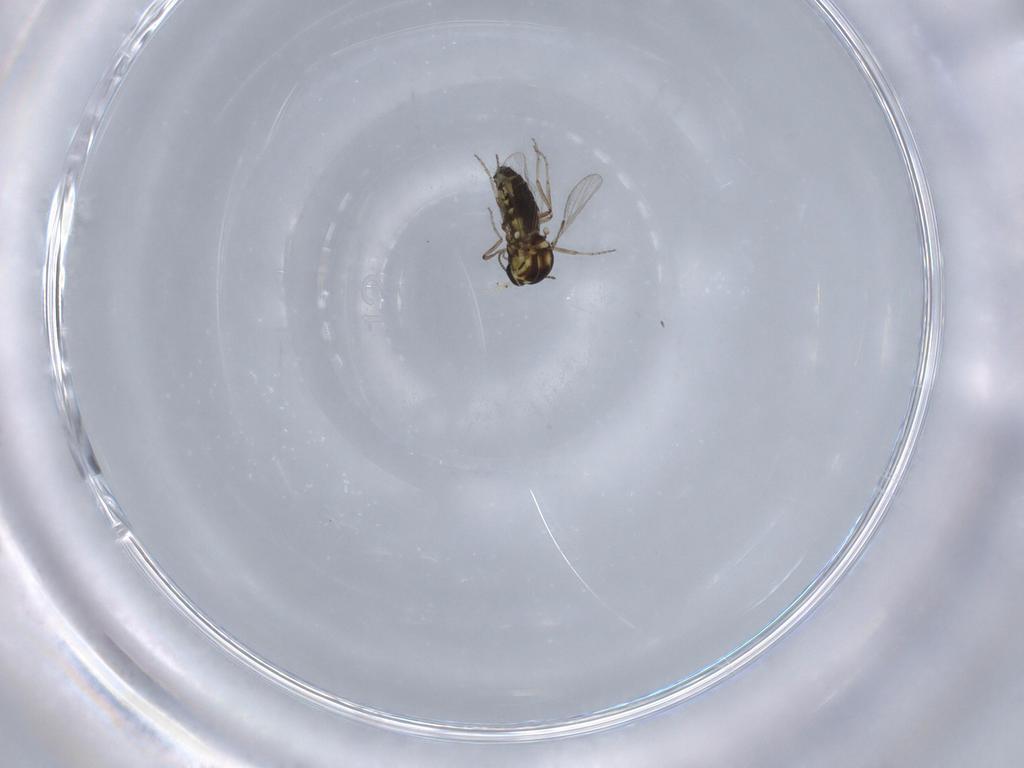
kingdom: Animalia
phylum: Arthropoda
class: Insecta
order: Diptera
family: Ceratopogonidae
